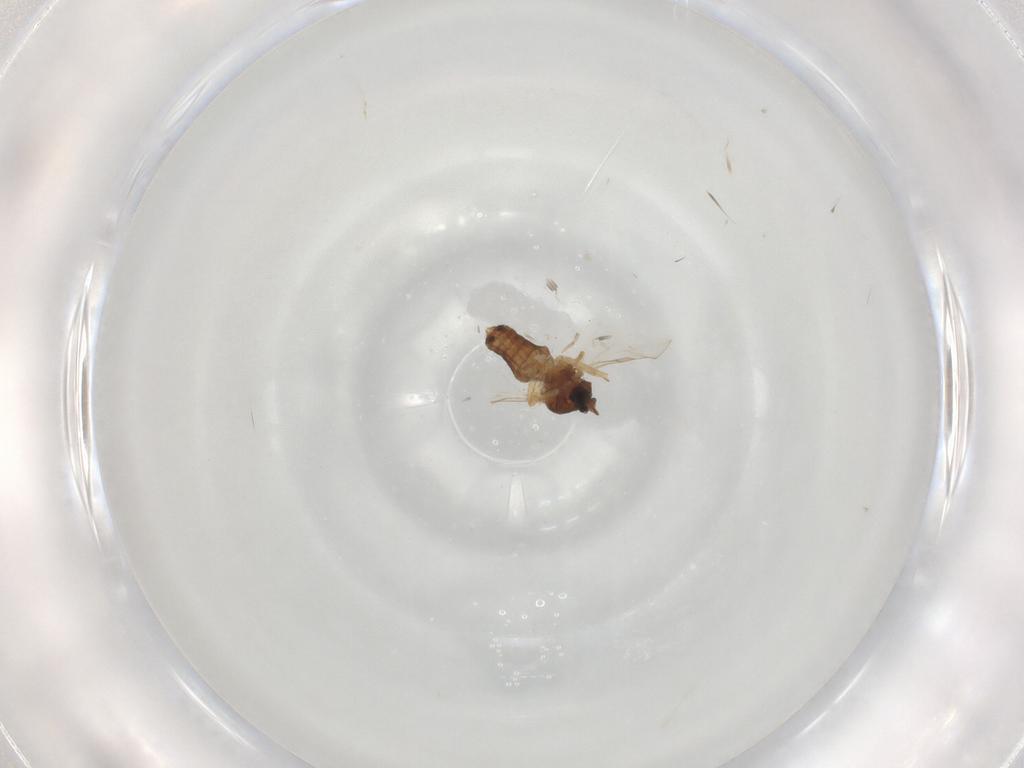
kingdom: Animalia
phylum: Arthropoda
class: Insecta
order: Diptera
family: Ceratopogonidae
